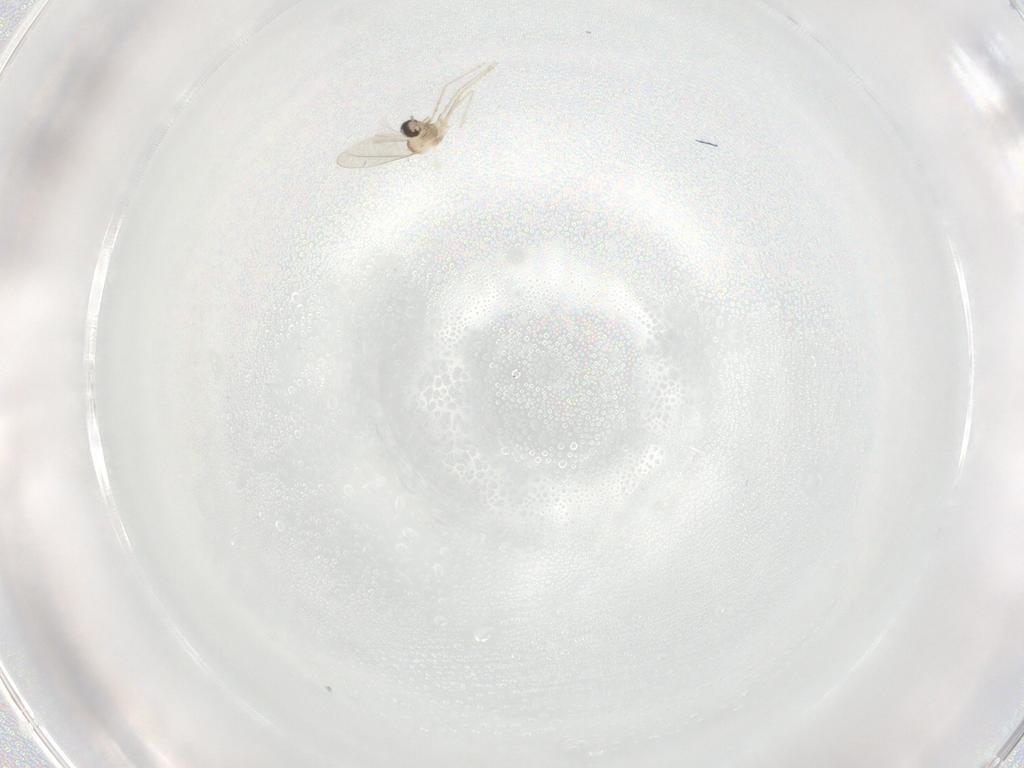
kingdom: Animalia
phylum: Arthropoda
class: Insecta
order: Diptera
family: Cecidomyiidae
